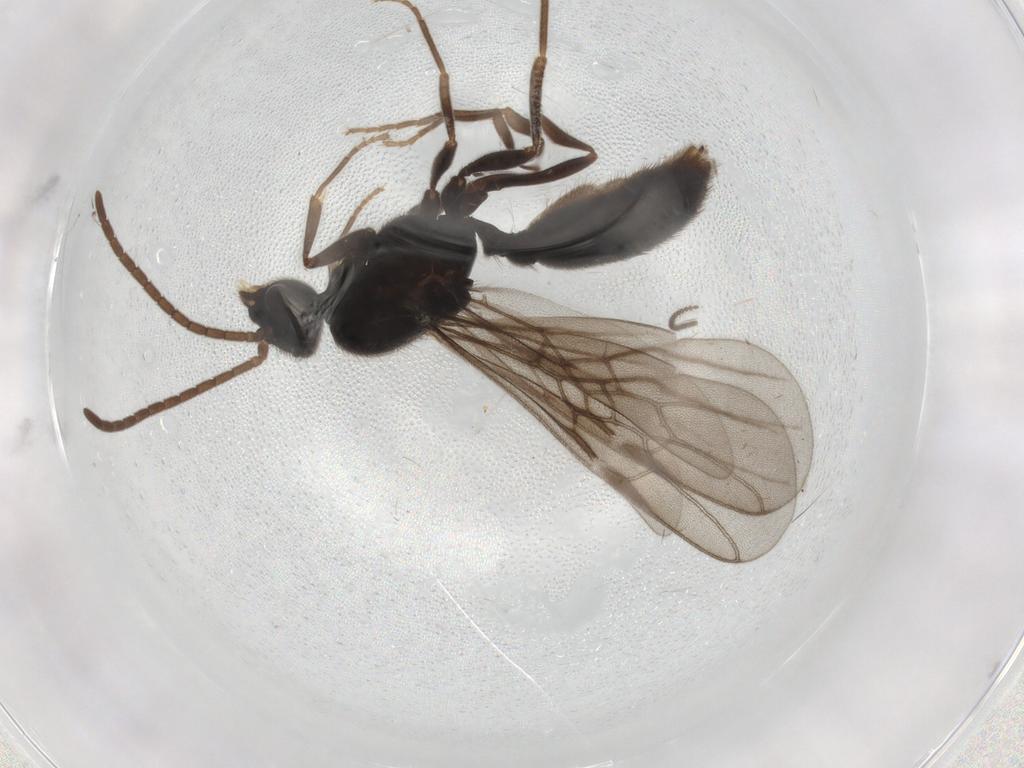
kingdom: Animalia
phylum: Arthropoda
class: Insecta
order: Hymenoptera
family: Formicidae
